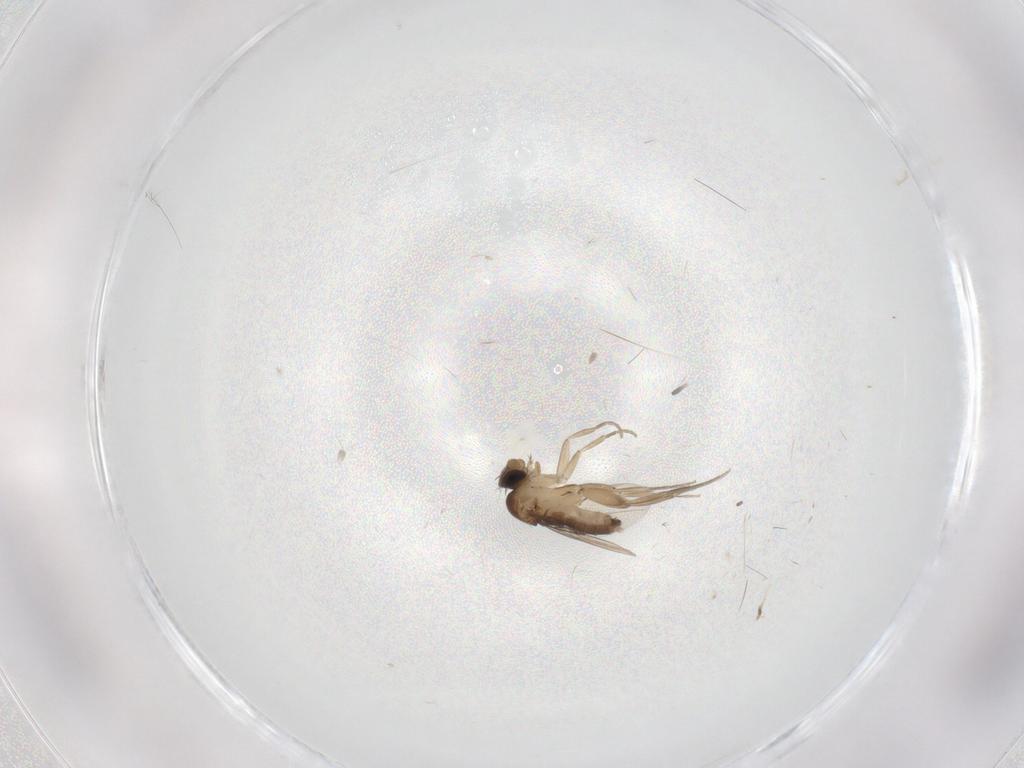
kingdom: Animalia
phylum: Arthropoda
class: Insecta
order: Diptera
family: Phoridae
